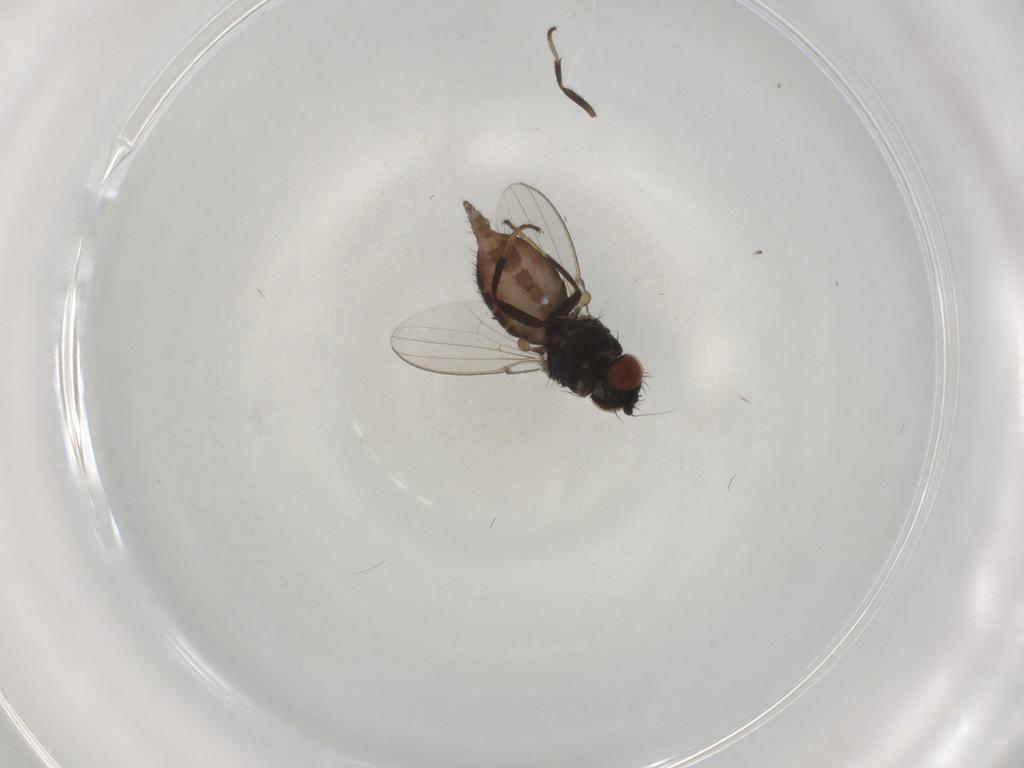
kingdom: Animalia
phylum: Arthropoda
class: Insecta
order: Diptera
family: Milichiidae
